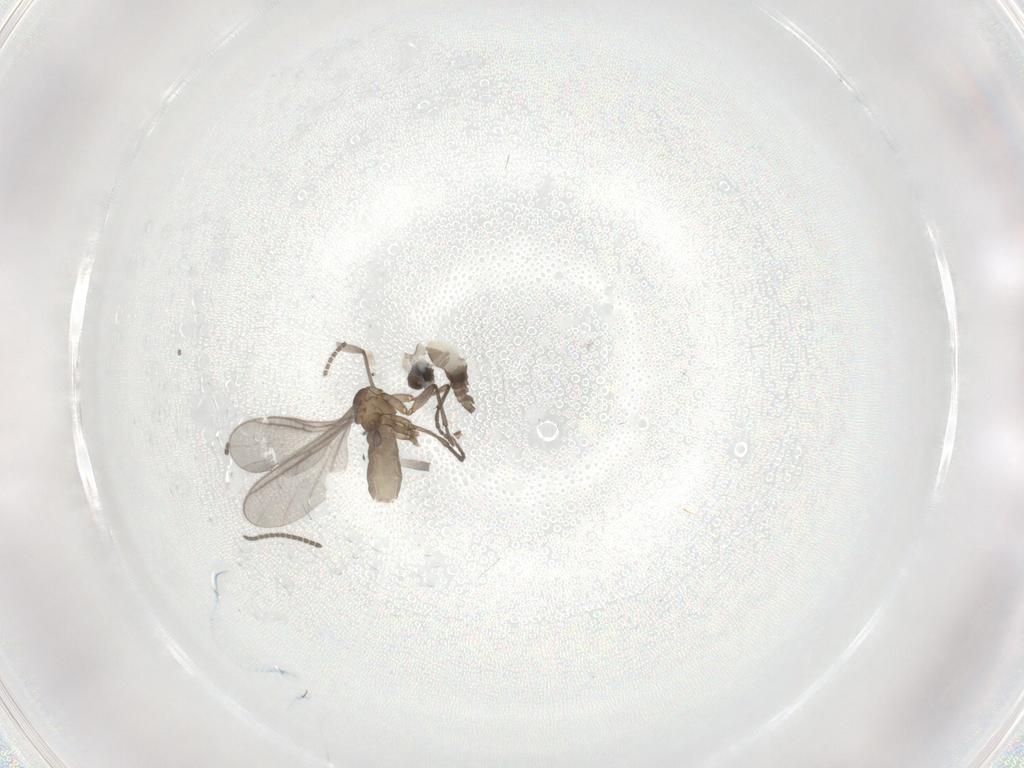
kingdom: Animalia
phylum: Arthropoda
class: Insecta
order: Diptera
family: Sciaridae
